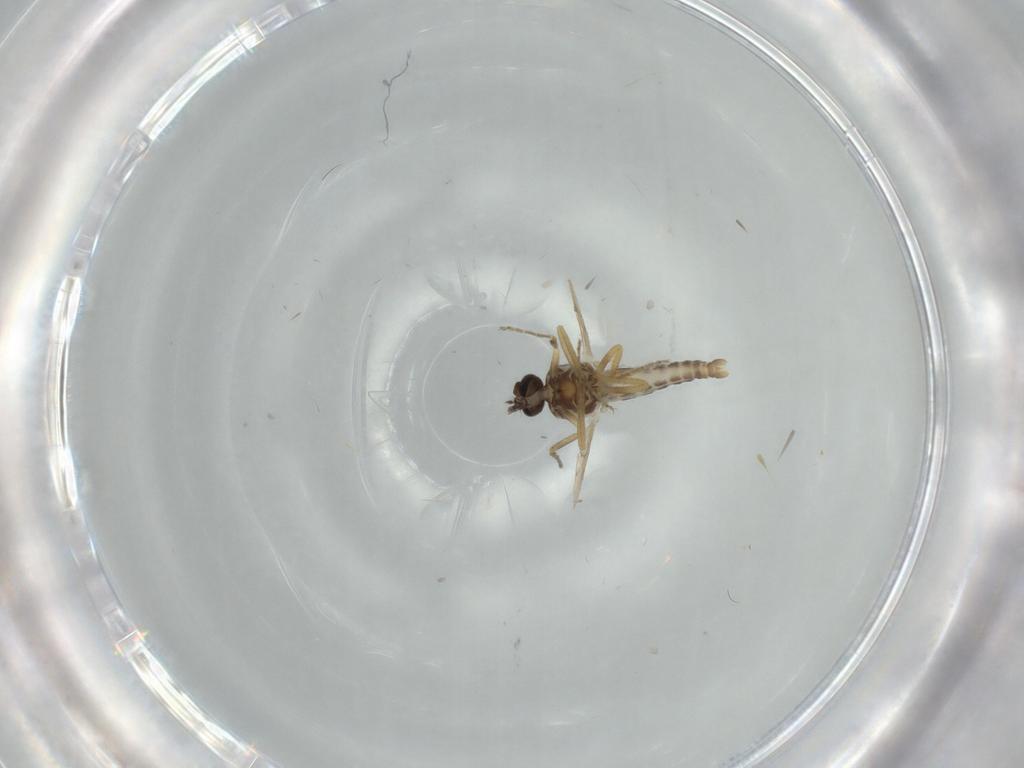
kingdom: Animalia
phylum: Arthropoda
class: Insecta
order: Diptera
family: Ceratopogonidae
